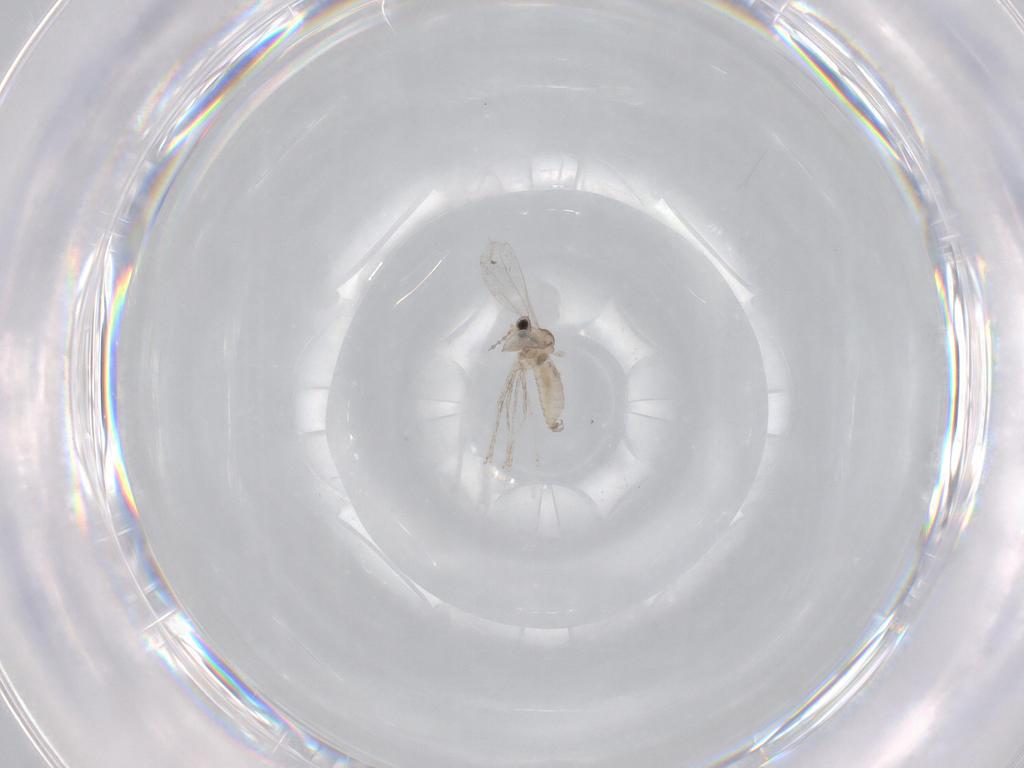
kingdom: Animalia
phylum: Arthropoda
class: Insecta
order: Diptera
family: Cecidomyiidae
